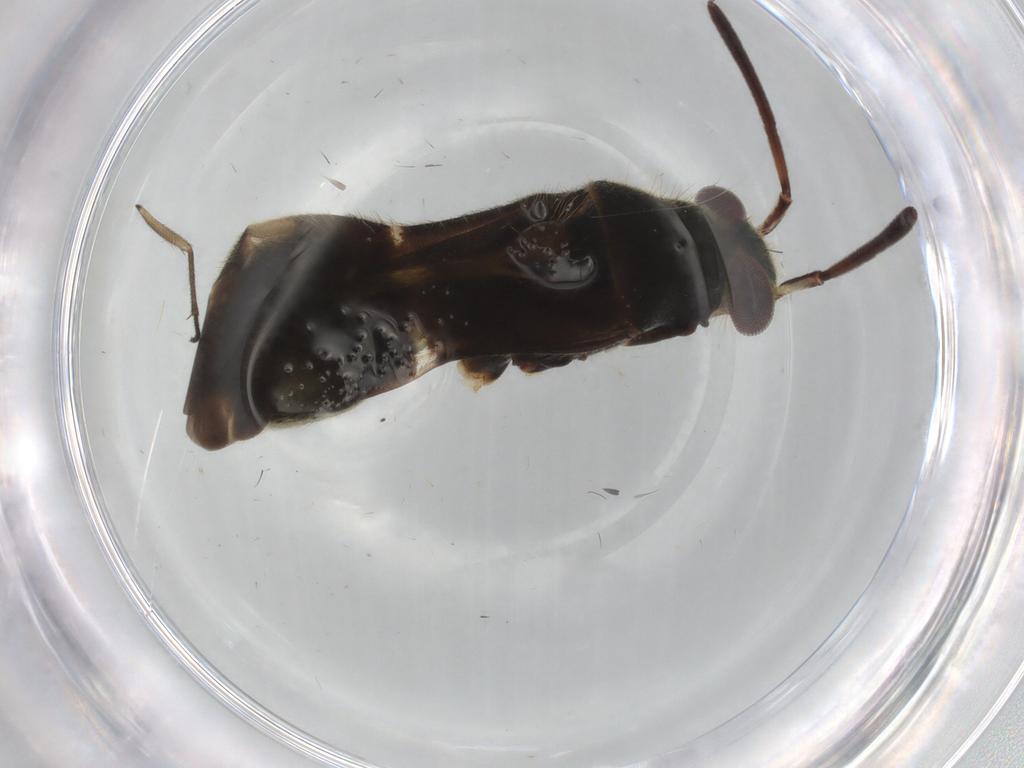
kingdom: Animalia
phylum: Arthropoda
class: Insecta
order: Hemiptera
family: Miridae
